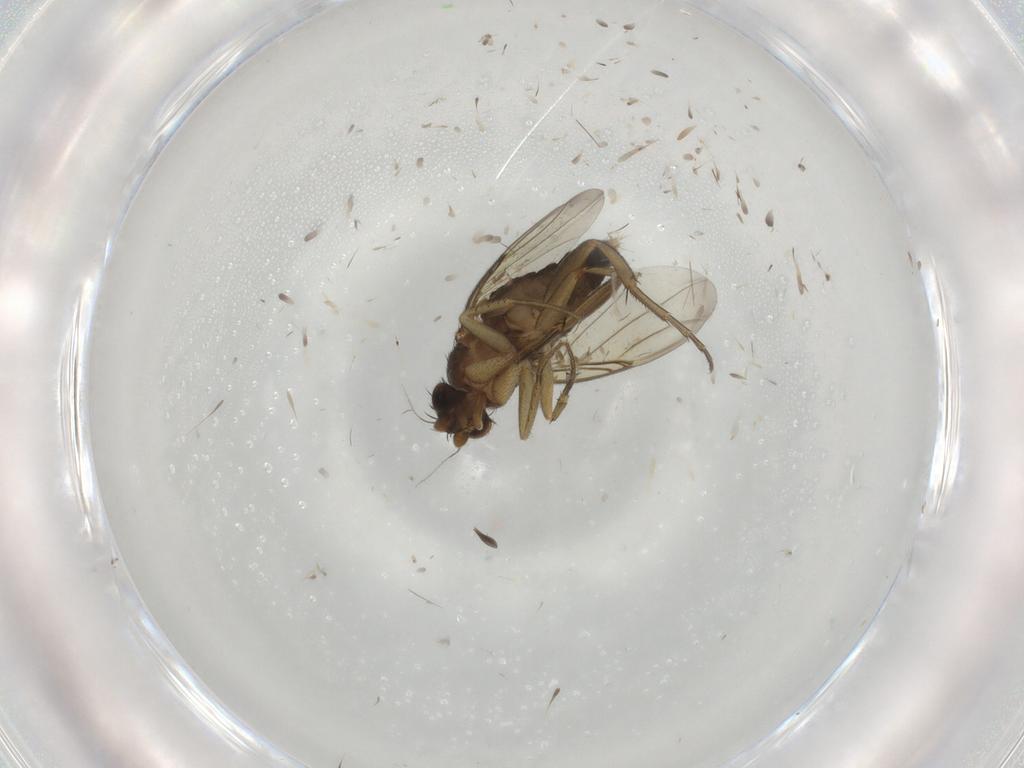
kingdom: Animalia
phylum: Arthropoda
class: Insecta
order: Diptera
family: Phoridae
